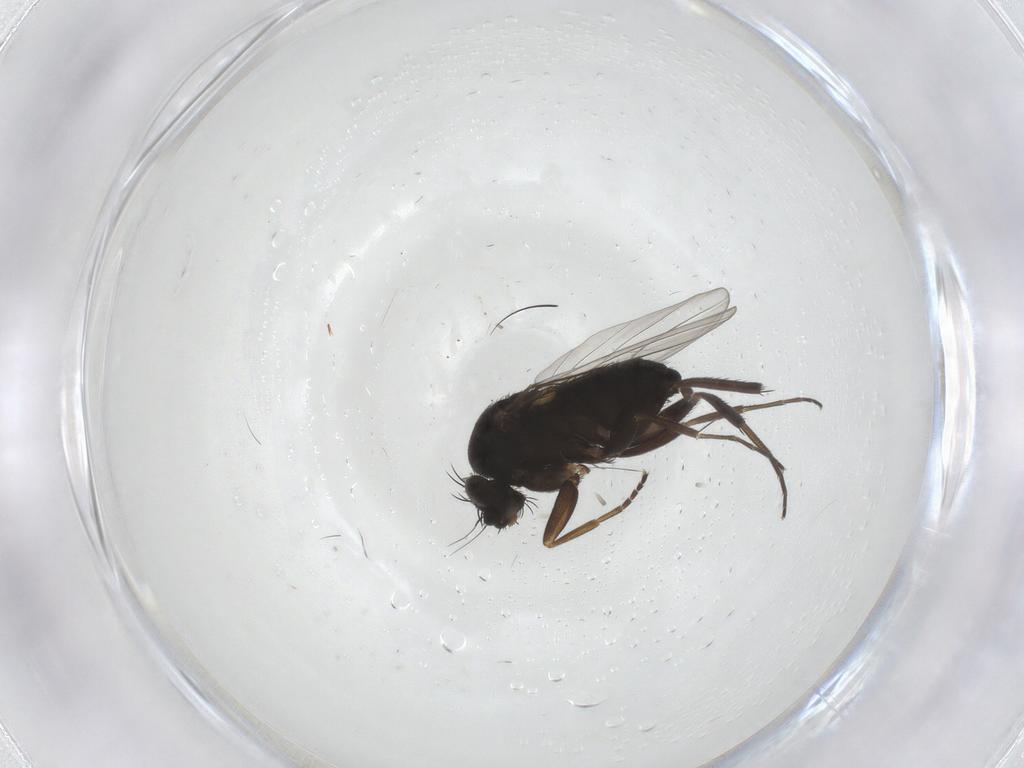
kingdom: Animalia
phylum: Arthropoda
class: Insecta
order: Diptera
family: Phoridae
